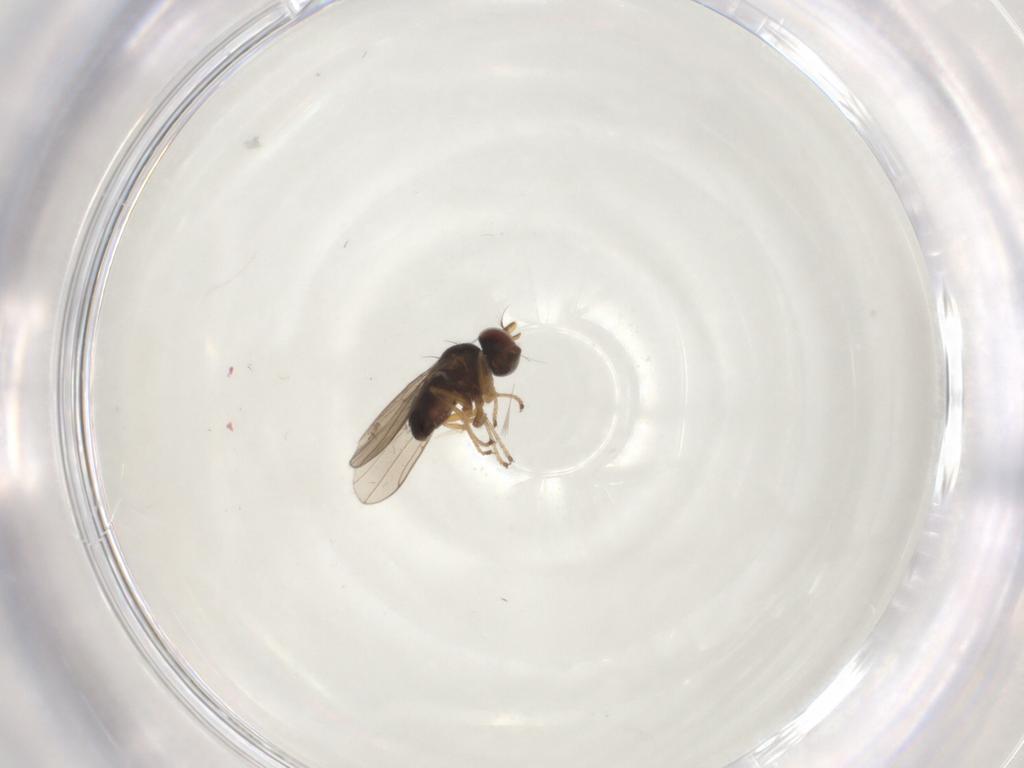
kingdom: Animalia
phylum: Arthropoda
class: Insecta
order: Diptera
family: Ephydridae
